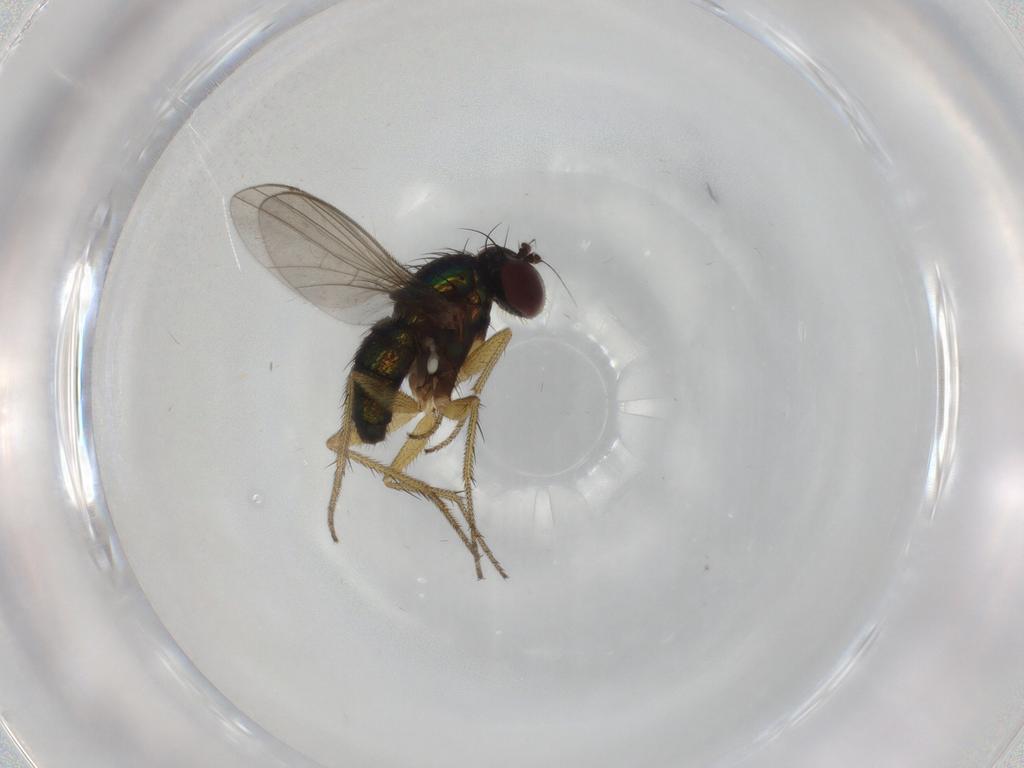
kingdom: Animalia
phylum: Arthropoda
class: Insecta
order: Diptera
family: Dolichopodidae
